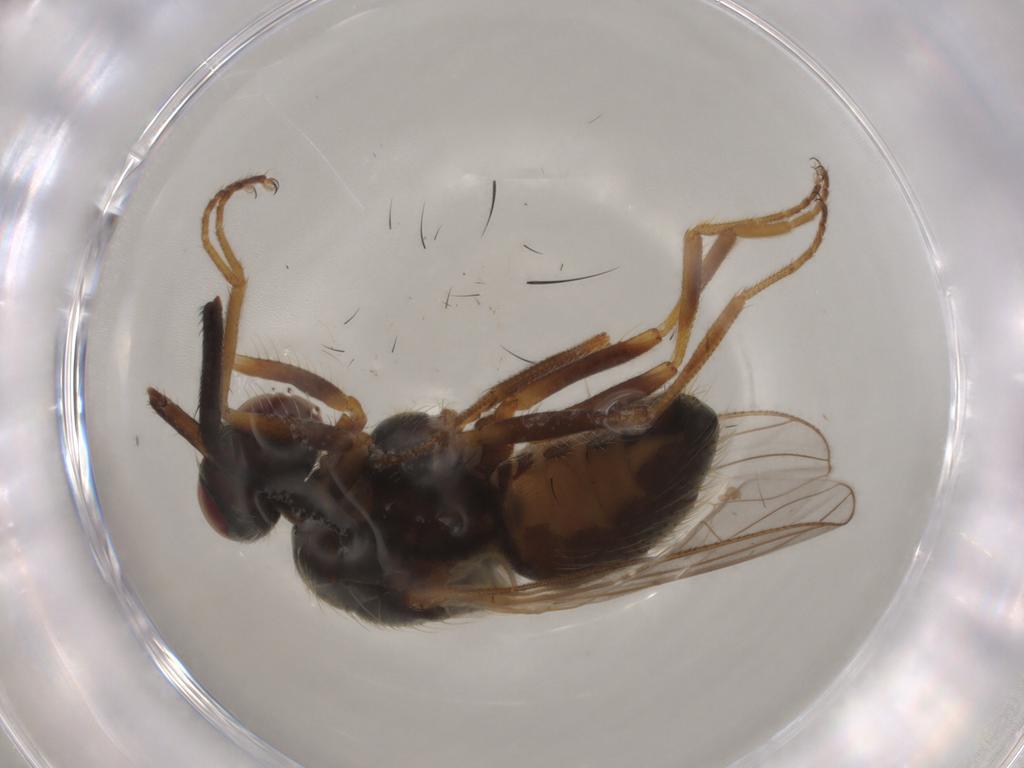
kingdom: Animalia
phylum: Arthropoda
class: Insecta
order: Diptera
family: Muscidae
